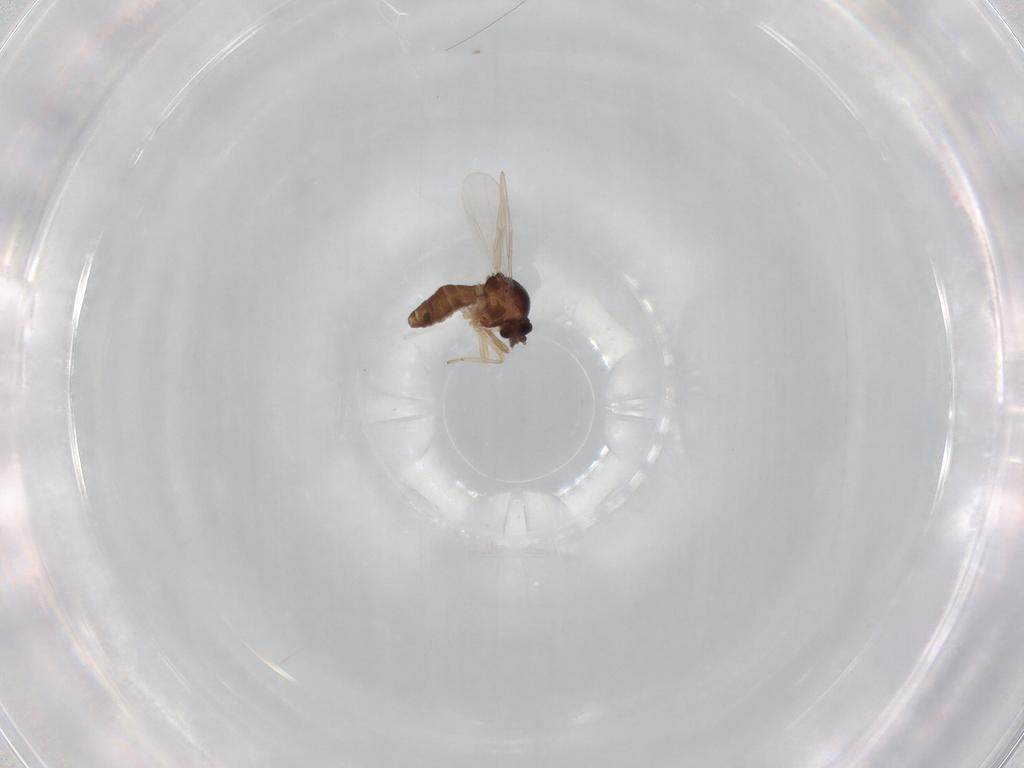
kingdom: Animalia
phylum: Arthropoda
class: Insecta
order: Diptera
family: Ceratopogonidae
